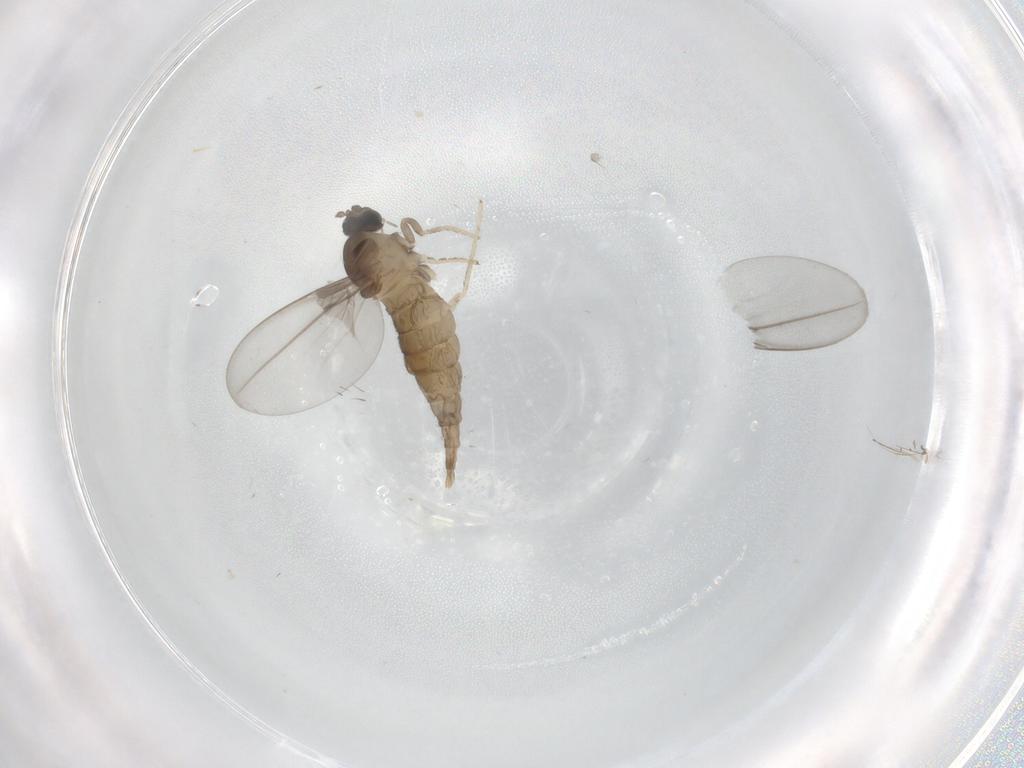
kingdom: Animalia
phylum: Arthropoda
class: Insecta
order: Diptera
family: Cecidomyiidae
